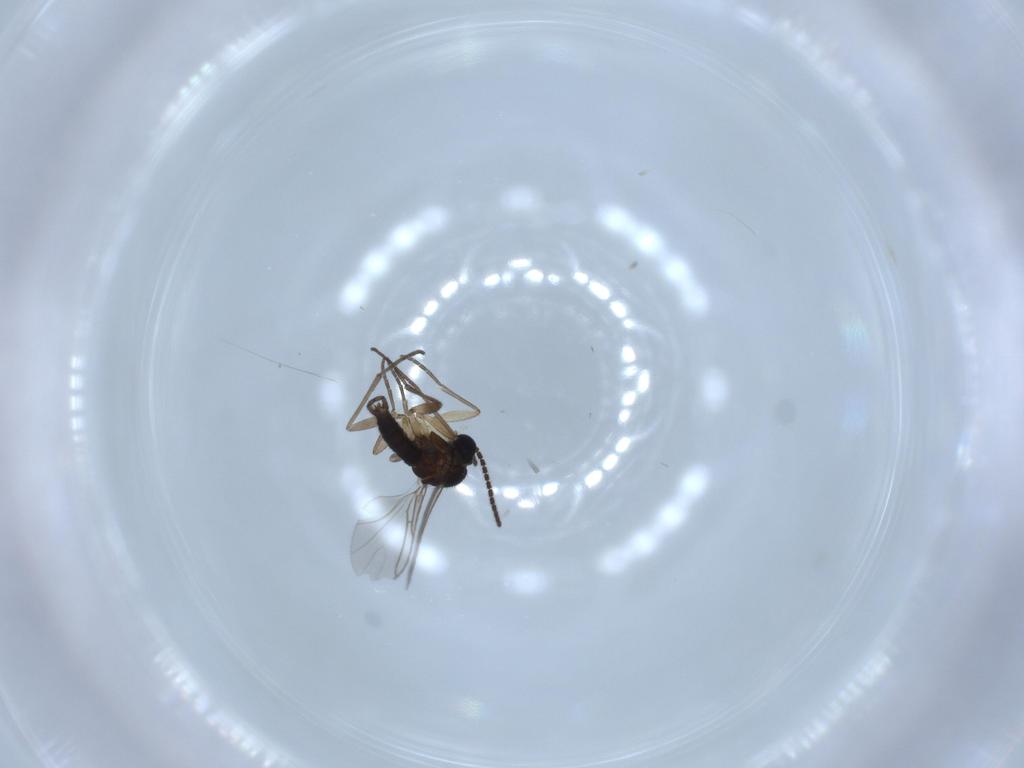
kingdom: Animalia
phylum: Arthropoda
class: Insecta
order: Diptera
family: Sciaridae
